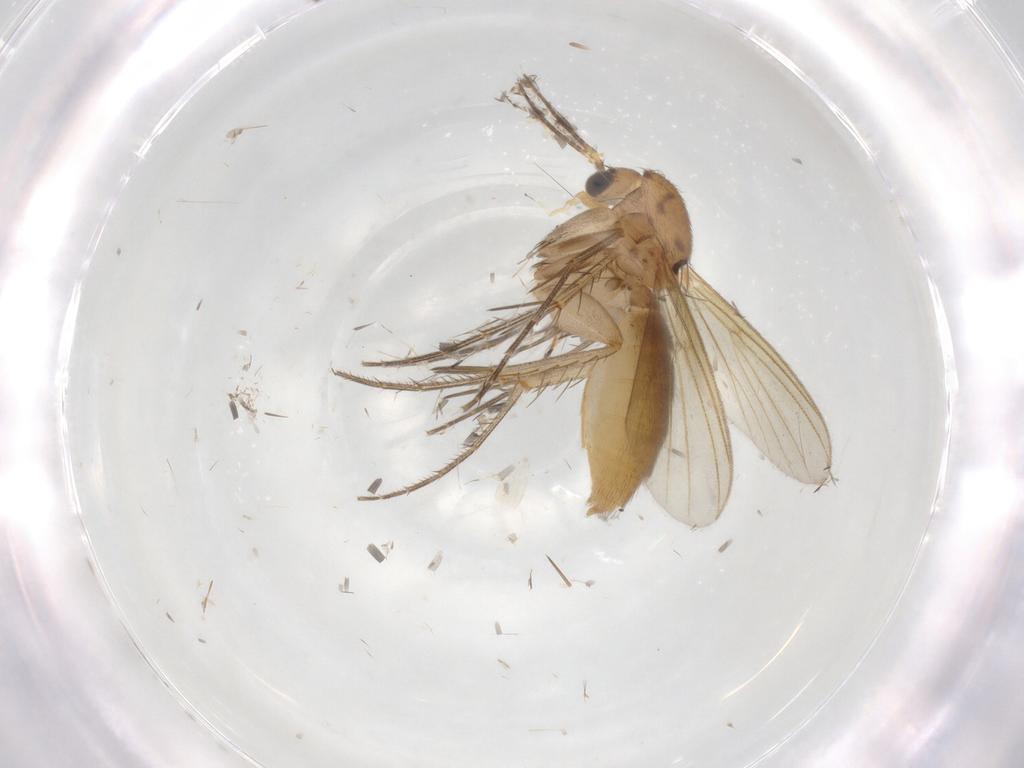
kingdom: Animalia
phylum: Arthropoda
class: Insecta
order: Diptera
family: Mycetophilidae
